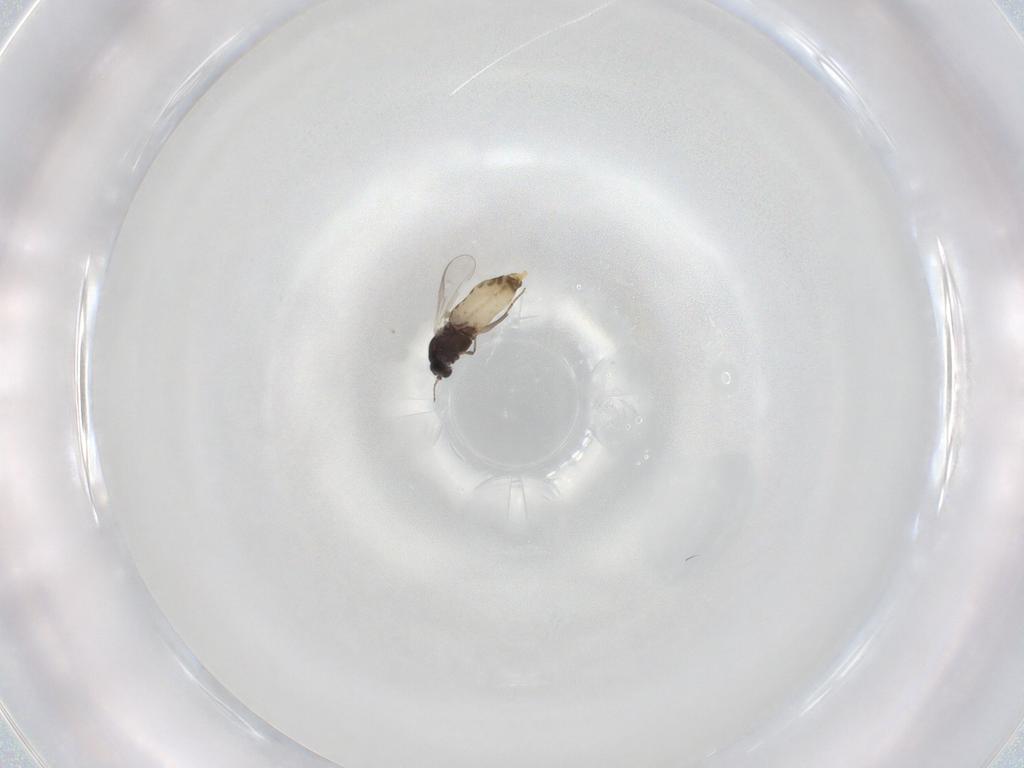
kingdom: Animalia
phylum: Arthropoda
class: Insecta
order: Diptera
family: Chironomidae
